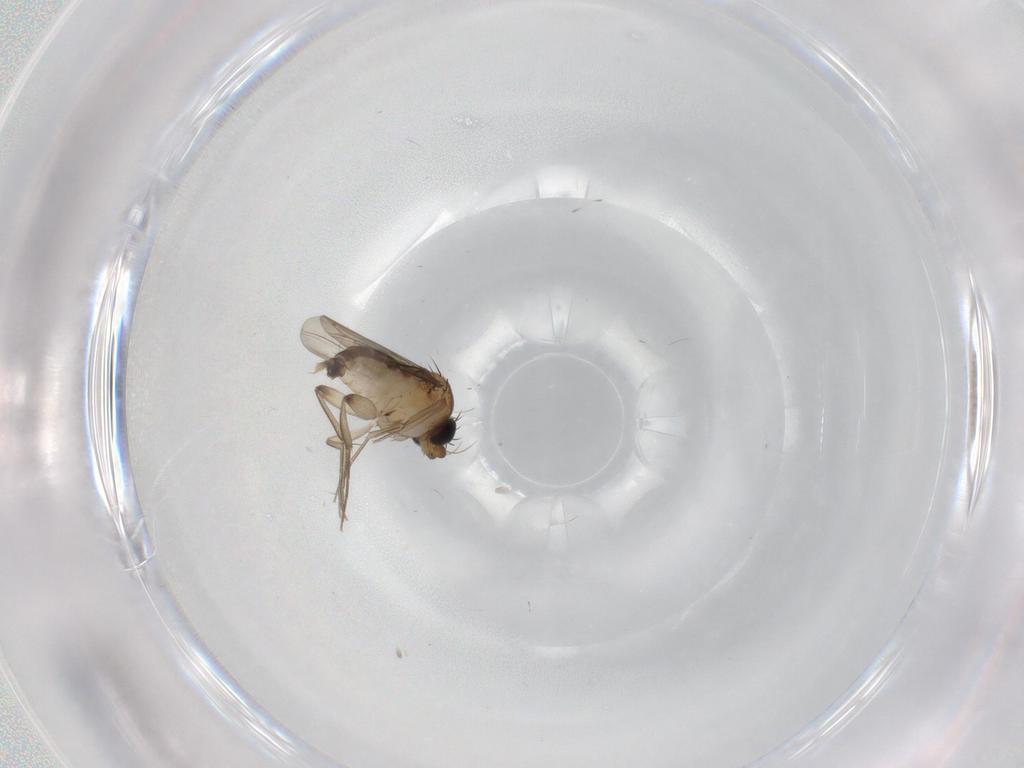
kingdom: Animalia
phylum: Arthropoda
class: Insecta
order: Diptera
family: Phoridae
